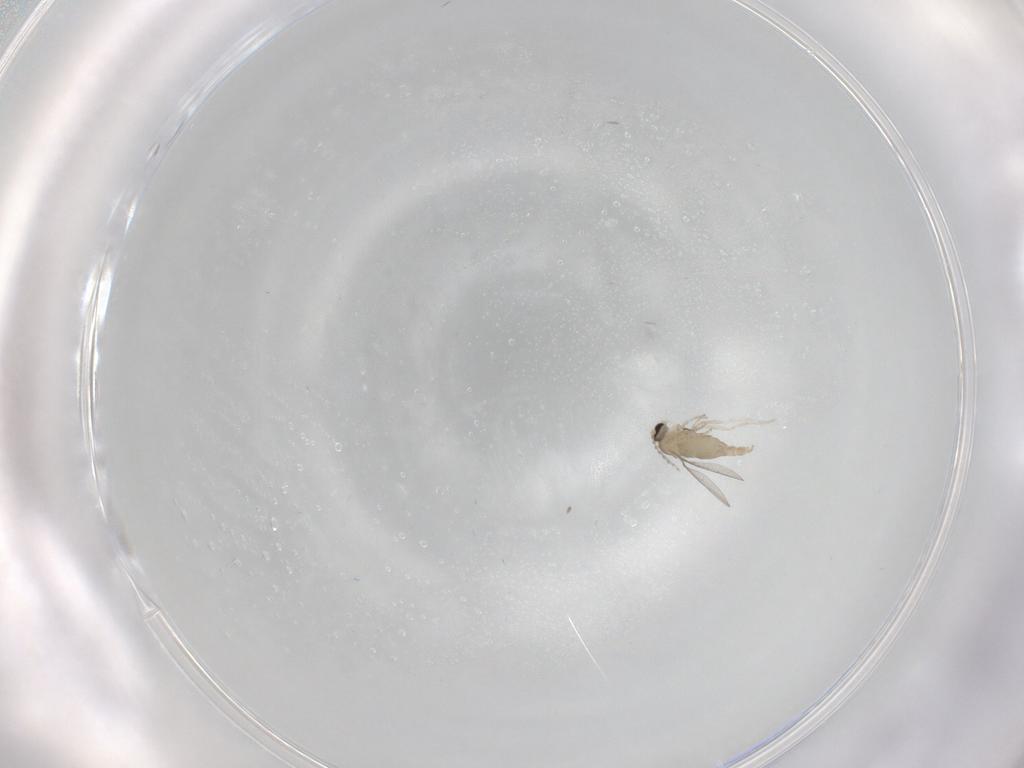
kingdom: Animalia
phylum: Arthropoda
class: Insecta
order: Diptera
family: Cecidomyiidae
